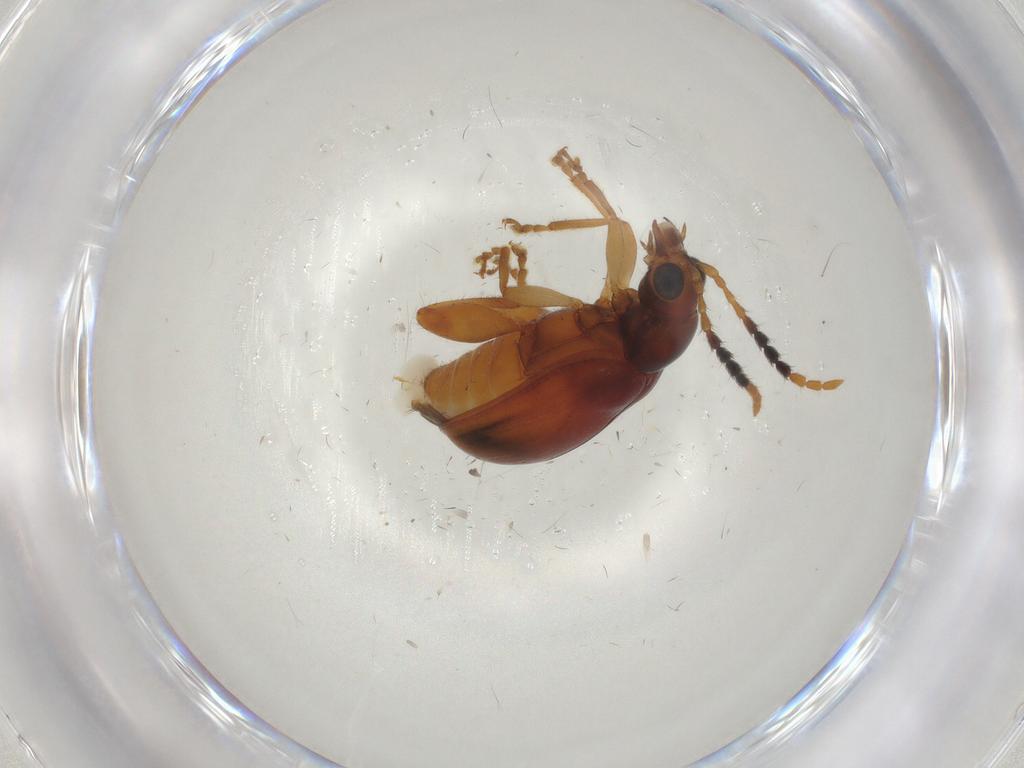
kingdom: Animalia
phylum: Arthropoda
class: Insecta
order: Coleoptera
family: Chrysomelidae
